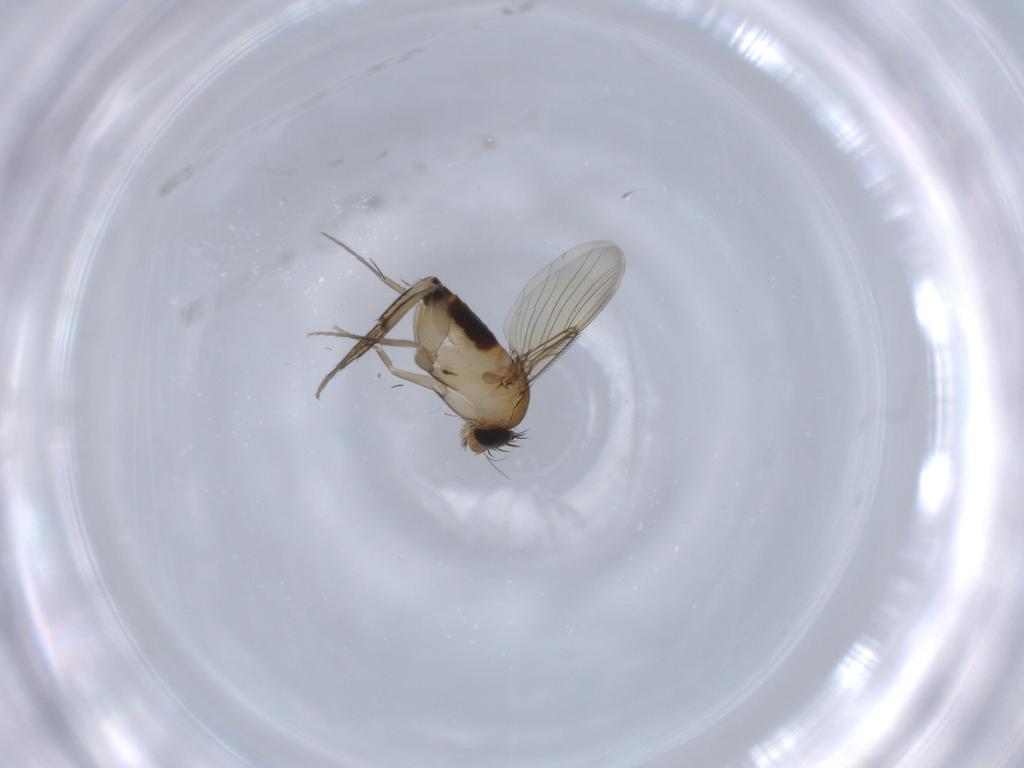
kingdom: Animalia
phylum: Arthropoda
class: Insecta
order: Diptera
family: Phoridae
